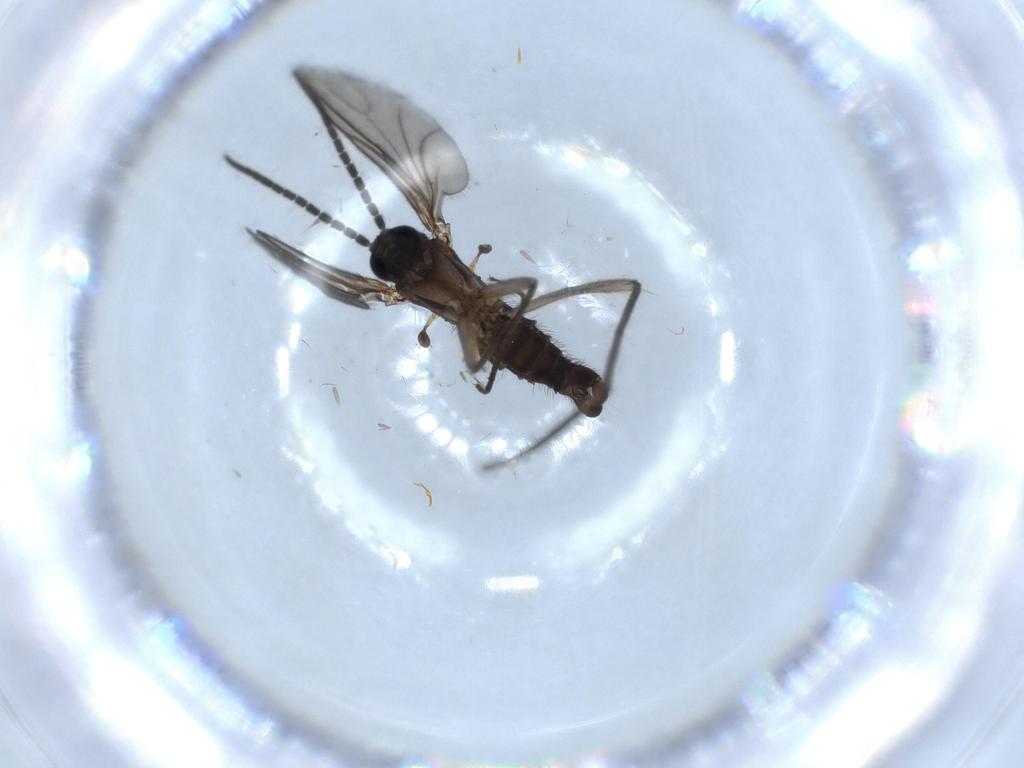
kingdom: Animalia
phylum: Arthropoda
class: Insecta
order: Diptera
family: Sciaridae
